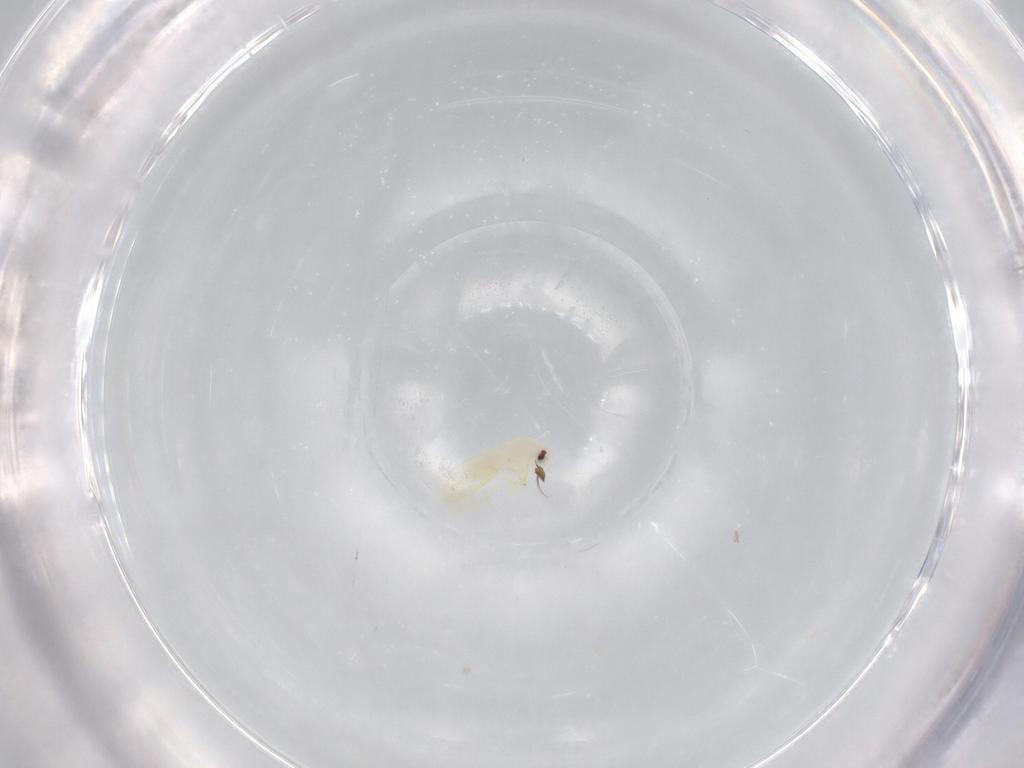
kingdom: Animalia
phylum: Arthropoda
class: Insecta
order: Hemiptera
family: Aleyrodidae
